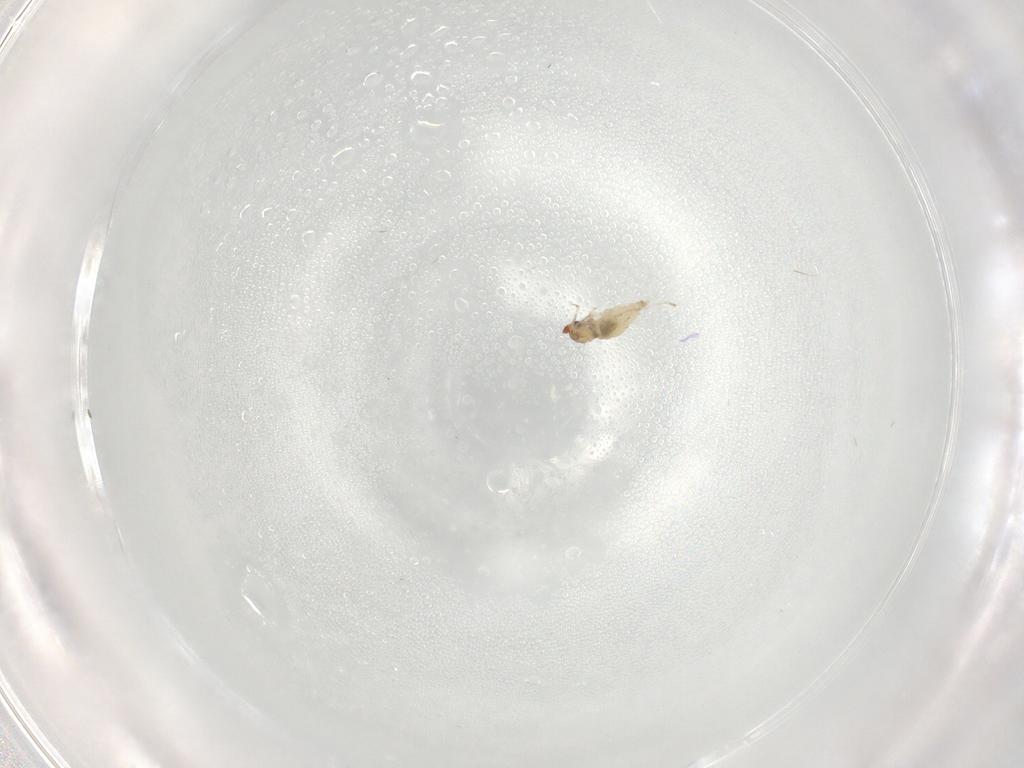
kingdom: Animalia
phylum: Arthropoda
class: Insecta
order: Diptera
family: Cecidomyiidae
